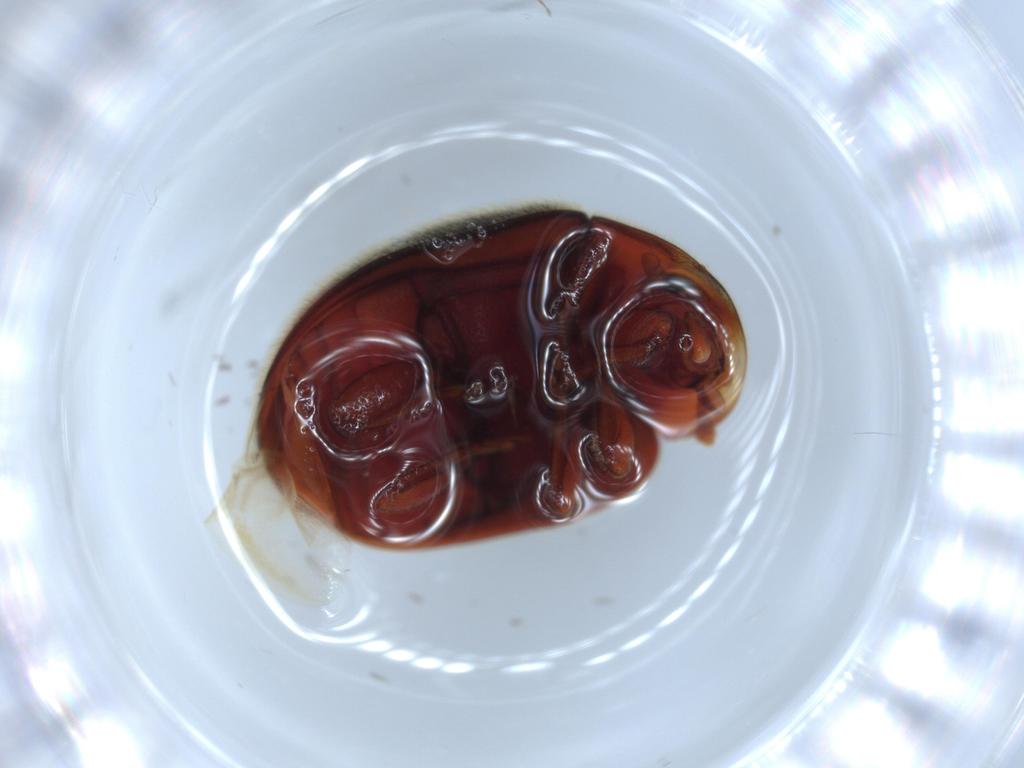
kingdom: Animalia
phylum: Arthropoda
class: Insecta
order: Coleoptera
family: Coccinellidae
